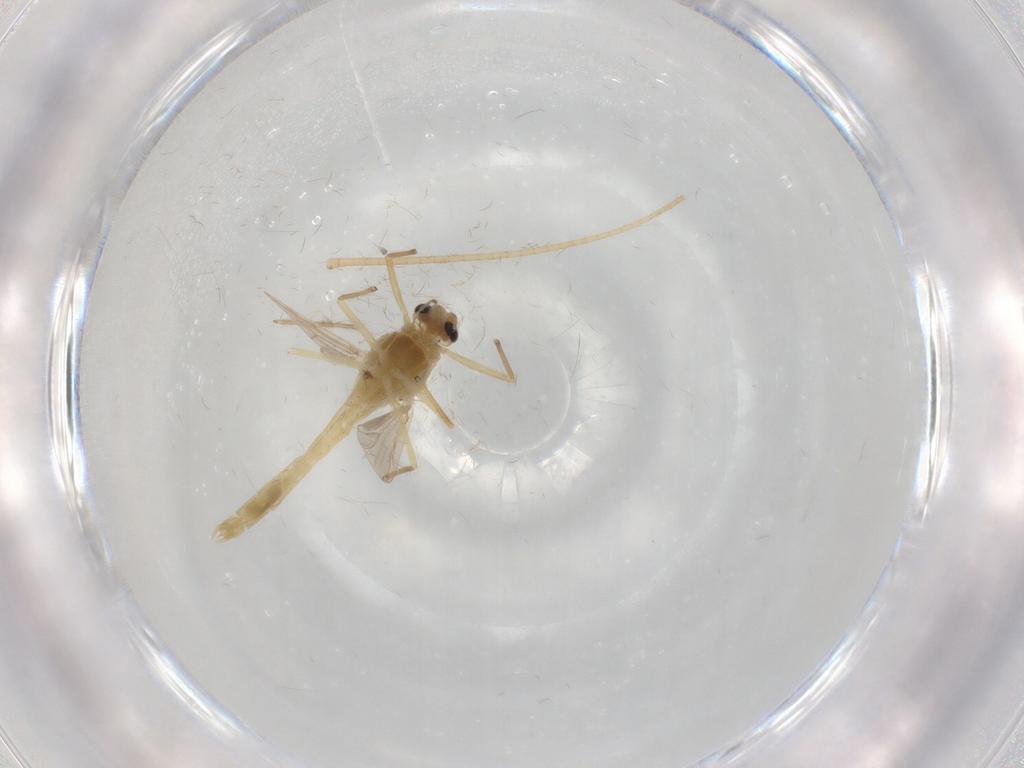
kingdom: Animalia
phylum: Arthropoda
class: Insecta
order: Diptera
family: Chironomidae
